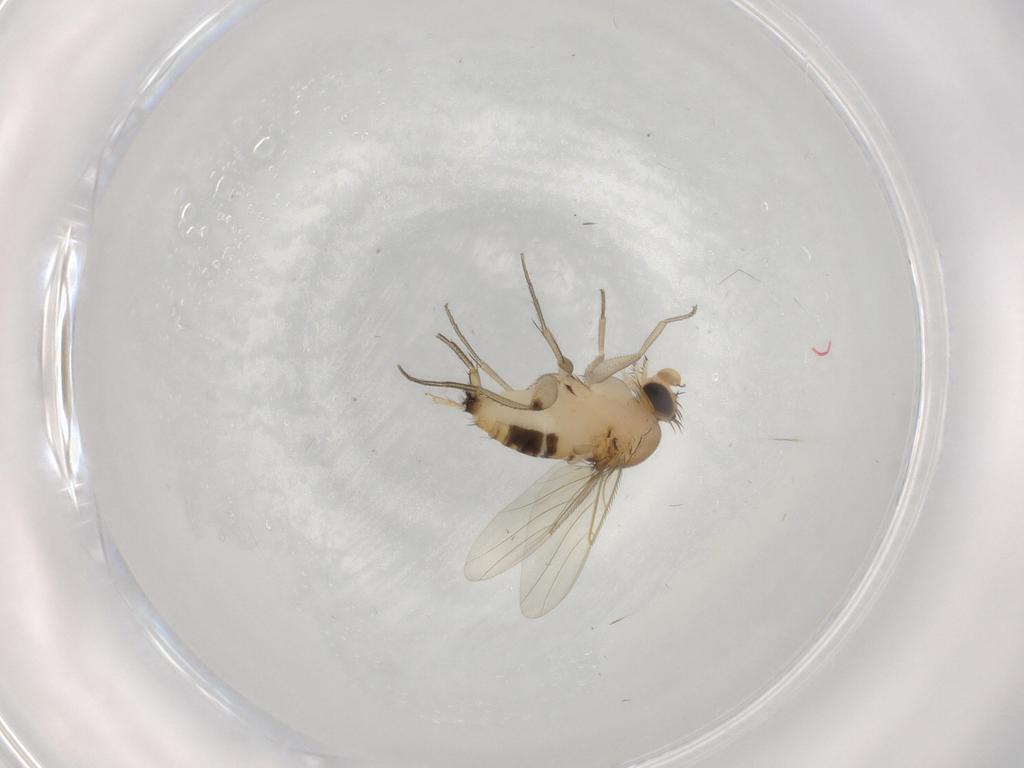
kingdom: Animalia
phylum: Arthropoda
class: Insecta
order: Diptera
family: Phoridae
